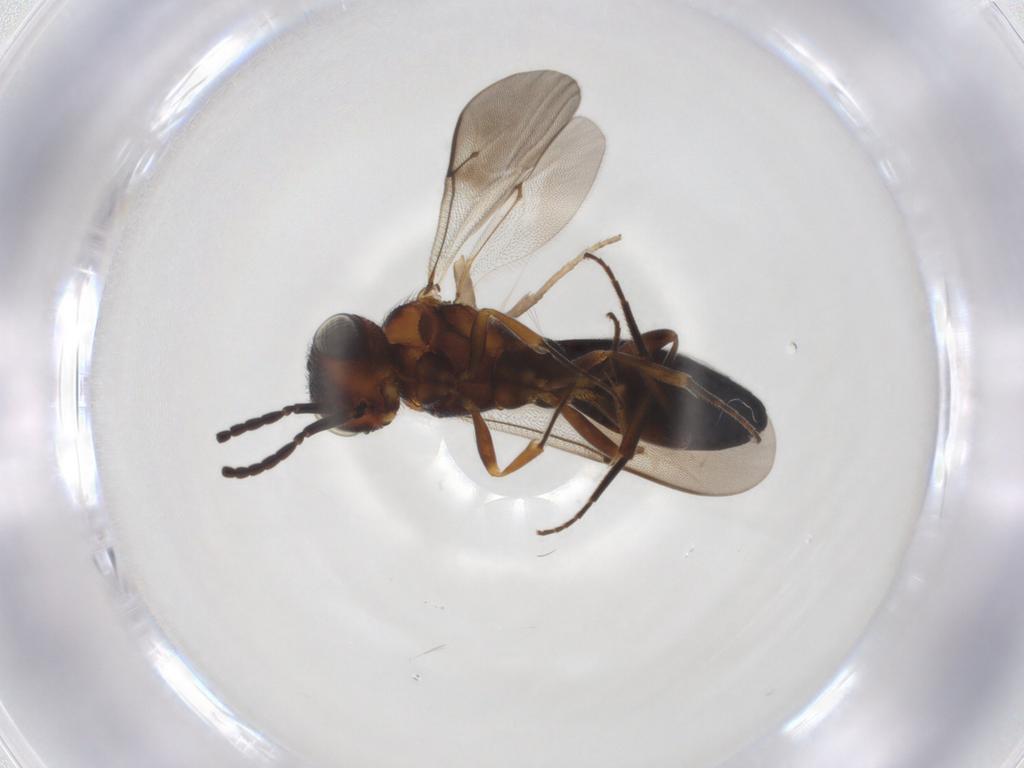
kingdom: Animalia
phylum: Arthropoda
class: Insecta
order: Hymenoptera
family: Scelionidae
